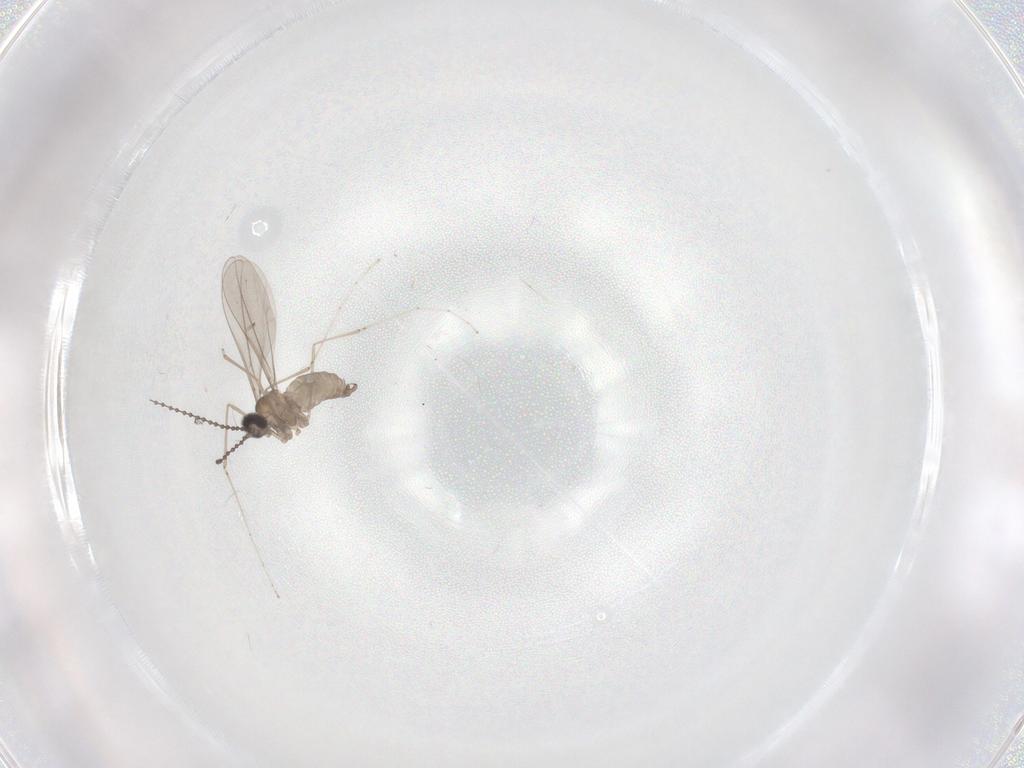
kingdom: Animalia
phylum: Arthropoda
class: Insecta
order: Diptera
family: Cecidomyiidae
